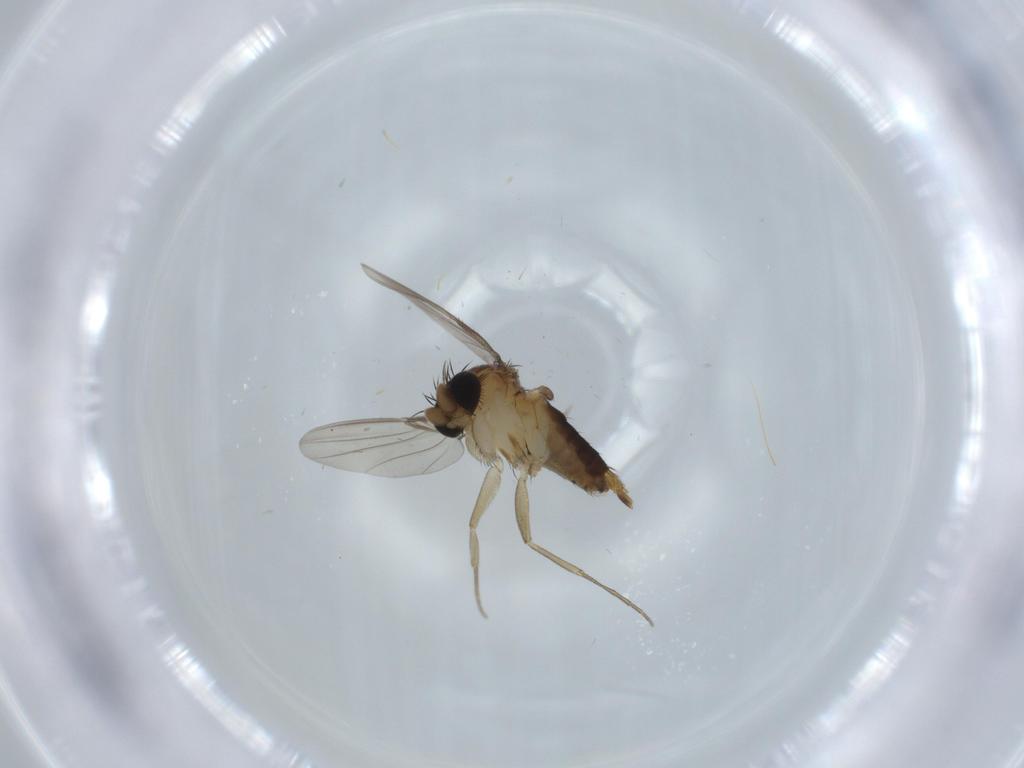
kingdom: Animalia
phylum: Arthropoda
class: Insecta
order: Diptera
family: Phoridae
